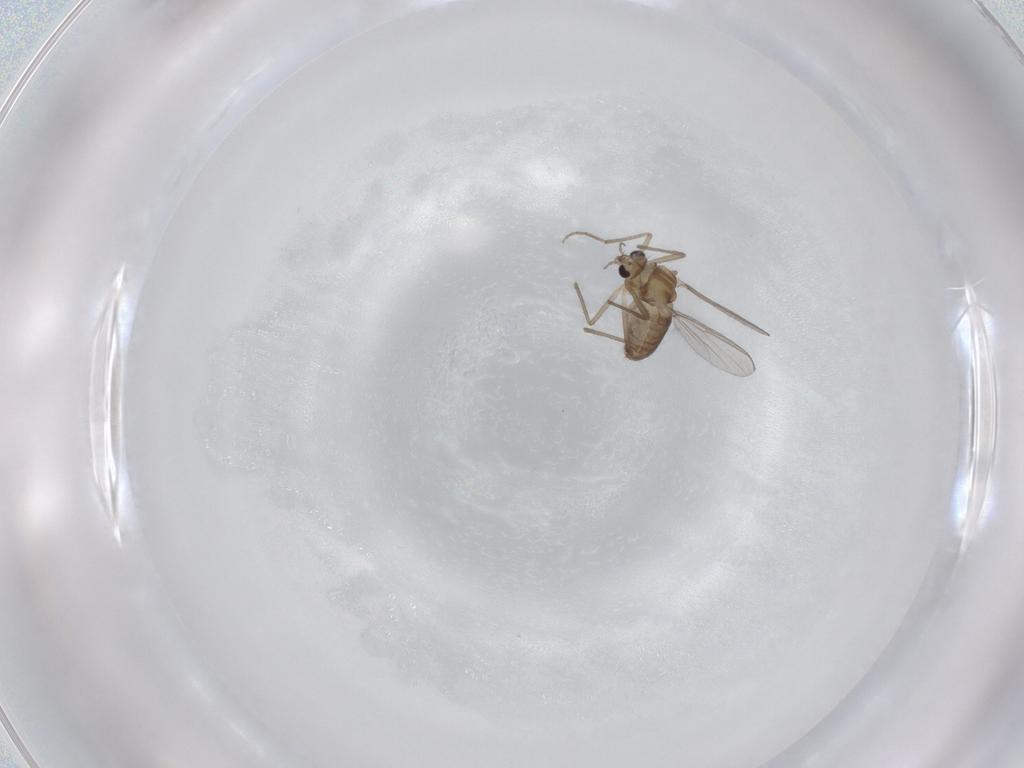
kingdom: Animalia
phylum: Arthropoda
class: Insecta
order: Diptera
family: Chironomidae
